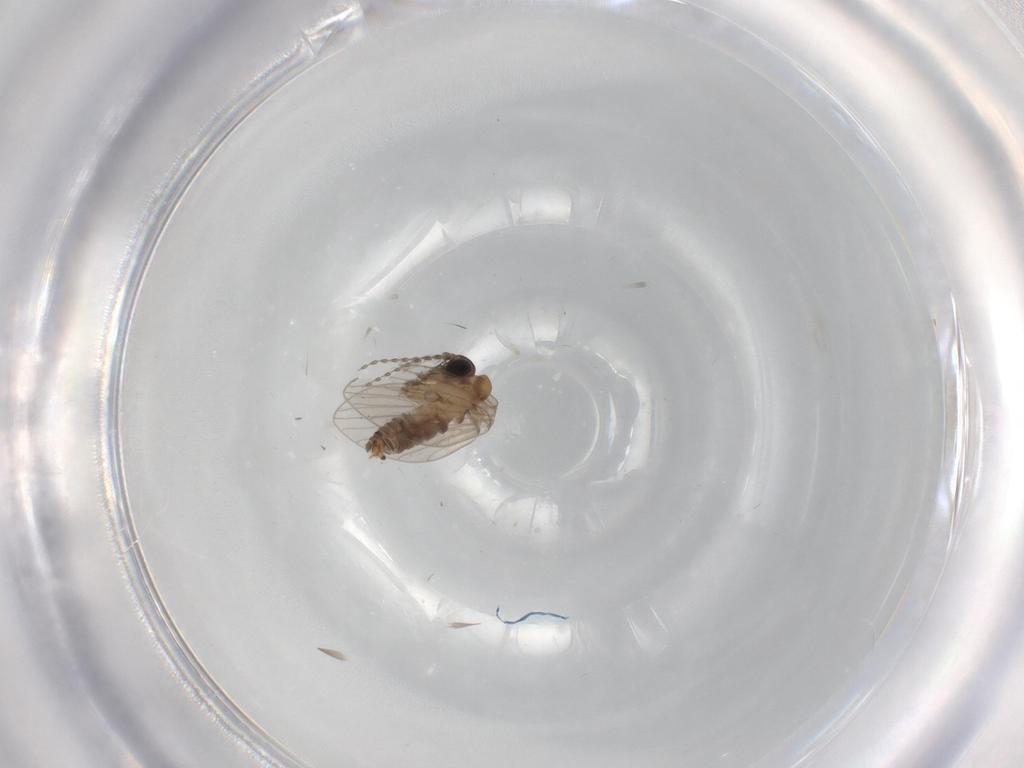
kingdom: Animalia
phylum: Arthropoda
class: Insecta
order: Diptera
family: Psychodidae
